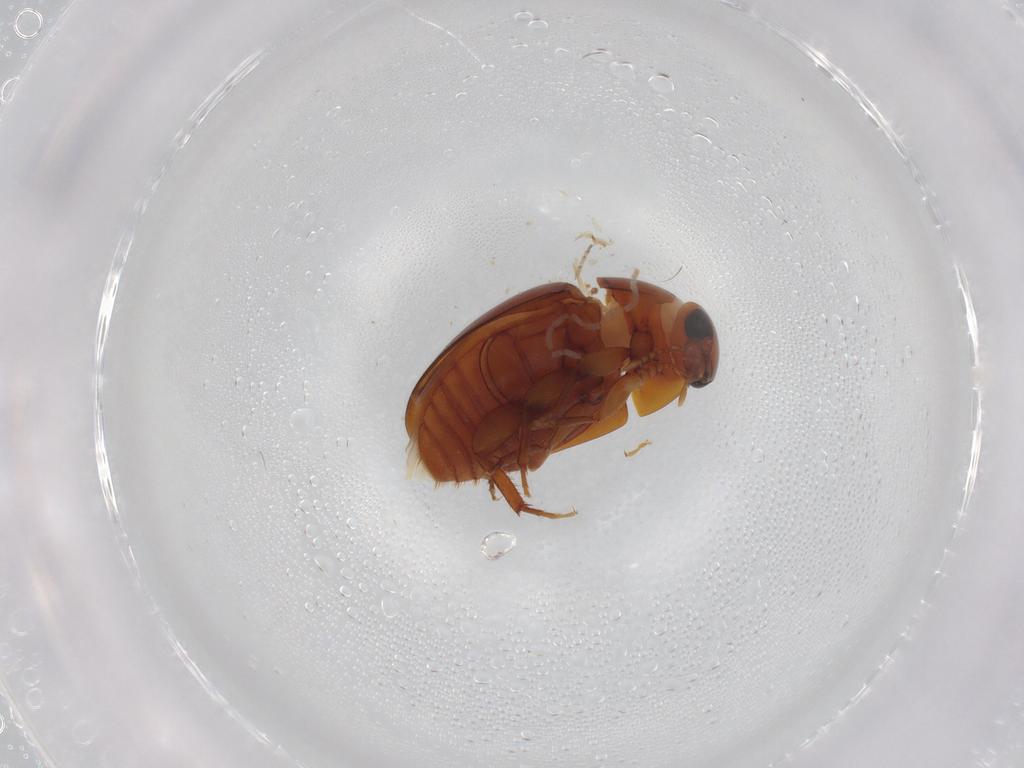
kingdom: Animalia
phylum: Arthropoda
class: Insecta
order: Coleoptera
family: Phalacridae
